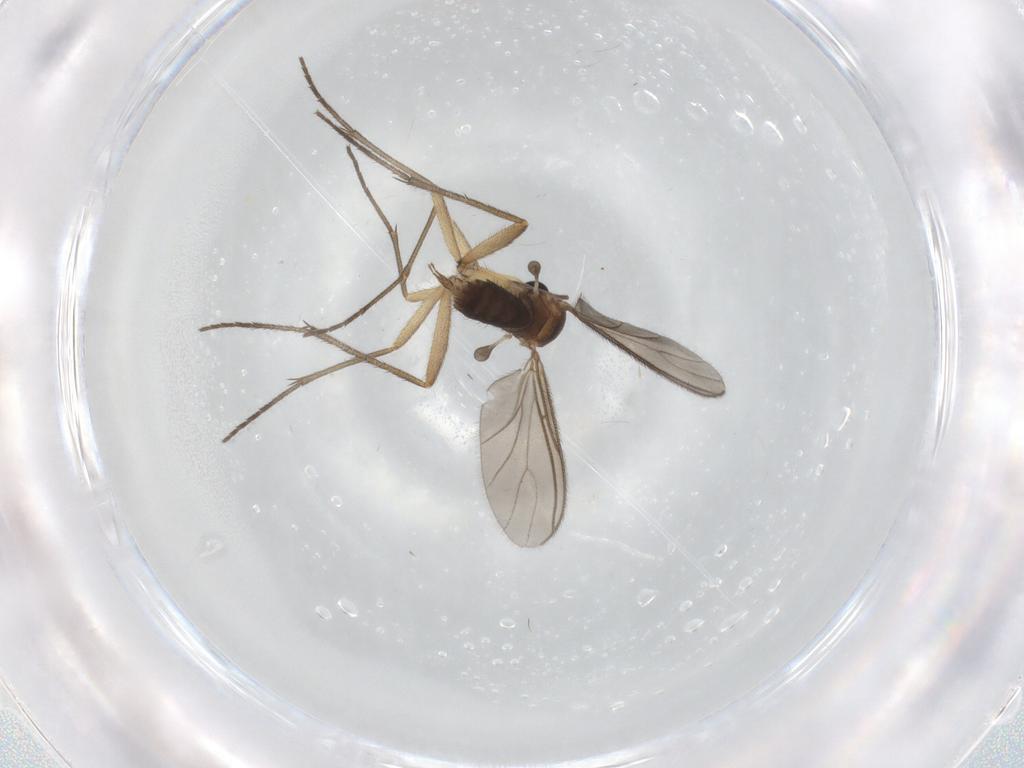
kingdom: Animalia
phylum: Arthropoda
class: Insecta
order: Diptera
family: Sciaridae
